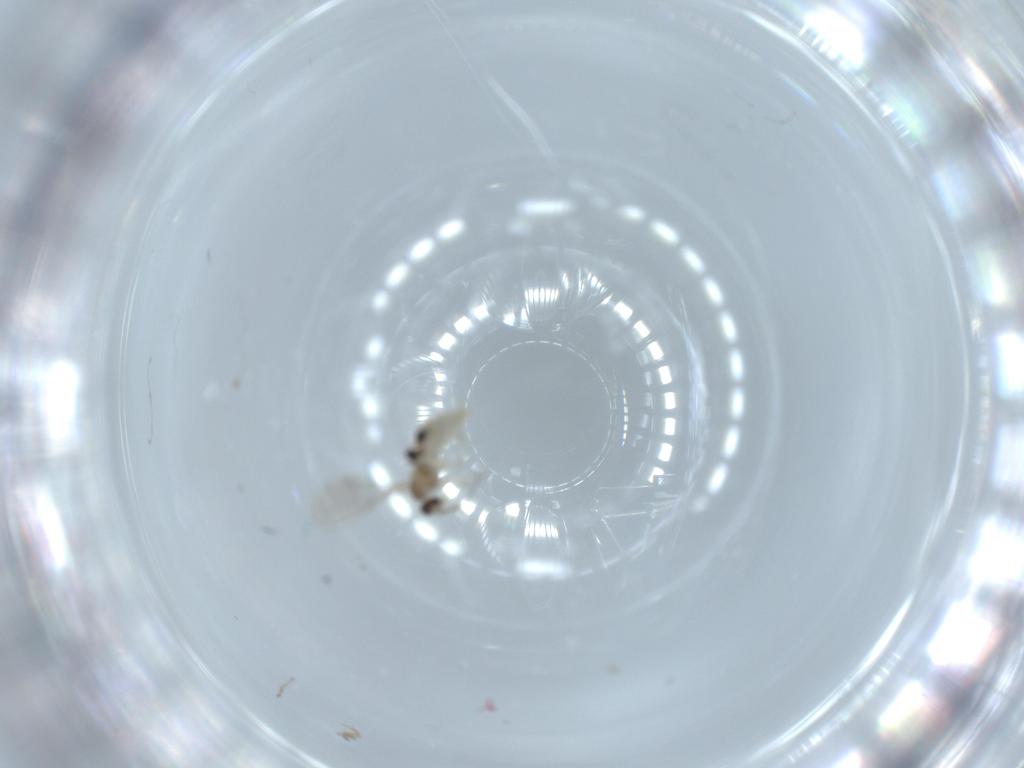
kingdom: Animalia
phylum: Arthropoda
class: Insecta
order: Diptera
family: Cecidomyiidae
